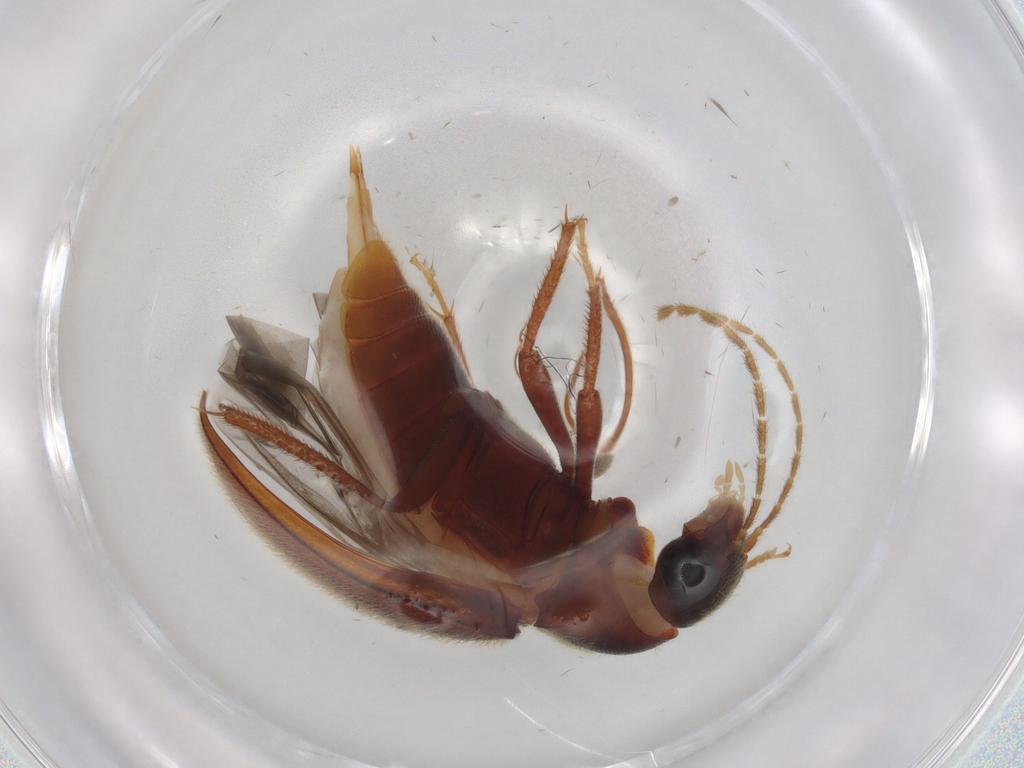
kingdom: Animalia
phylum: Arthropoda
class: Insecta
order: Coleoptera
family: Ptilodactylidae
